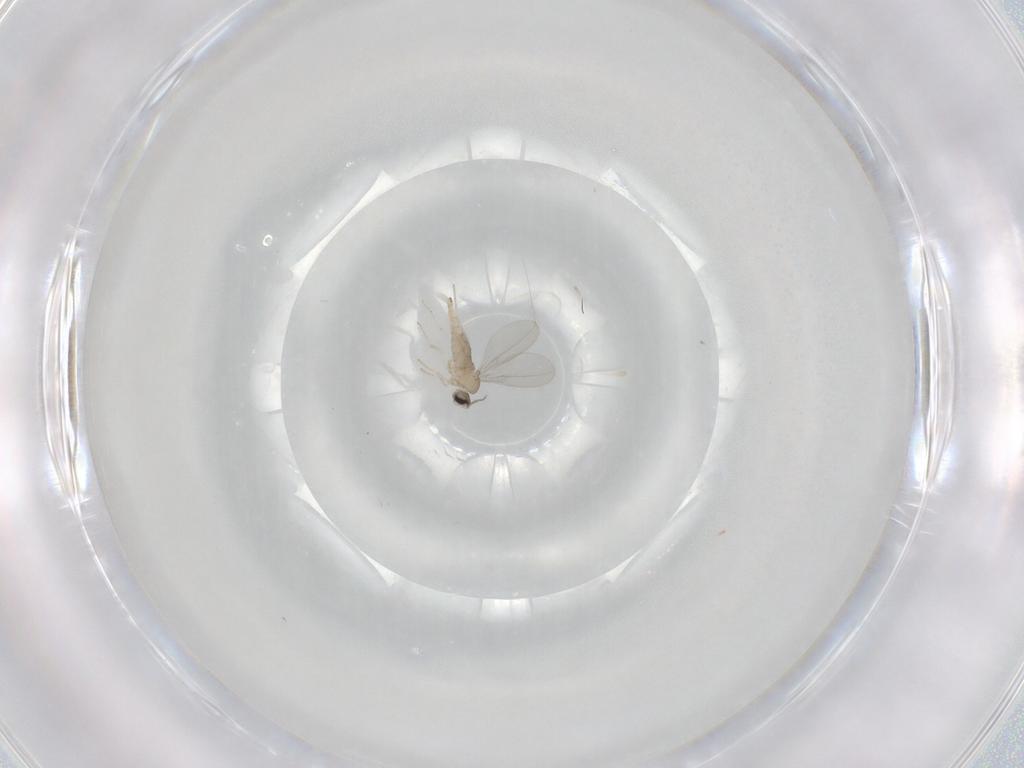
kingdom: Animalia
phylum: Arthropoda
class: Insecta
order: Diptera
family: Cecidomyiidae
